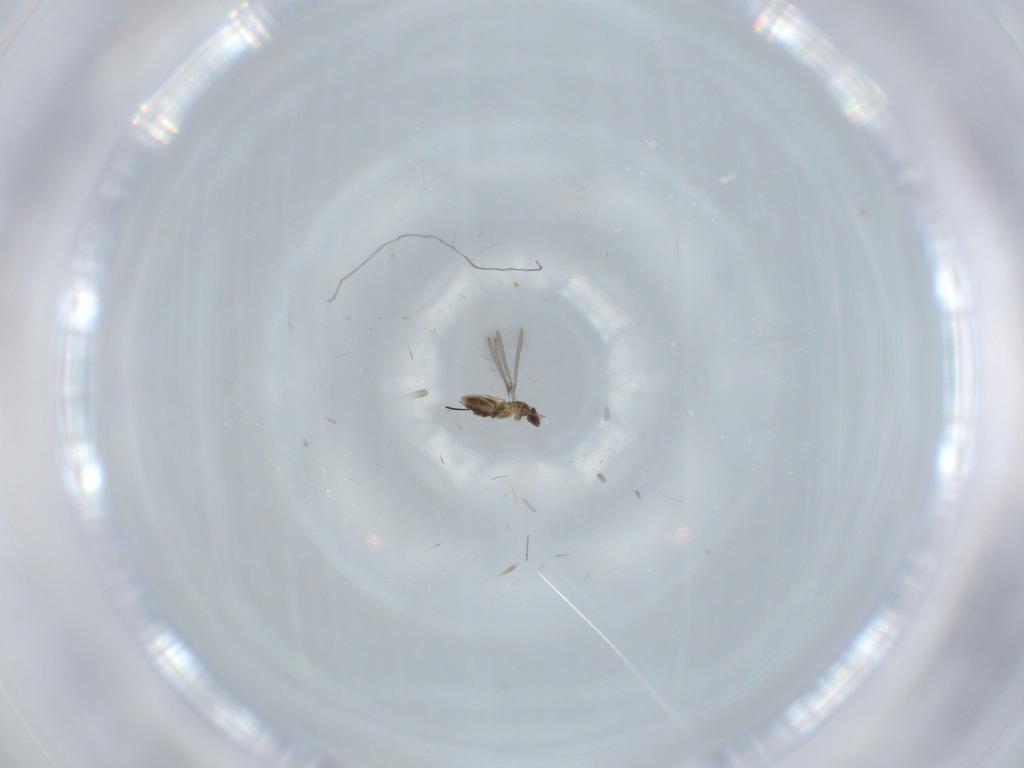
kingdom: Animalia
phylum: Arthropoda
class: Insecta
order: Hymenoptera
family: Mymaridae
